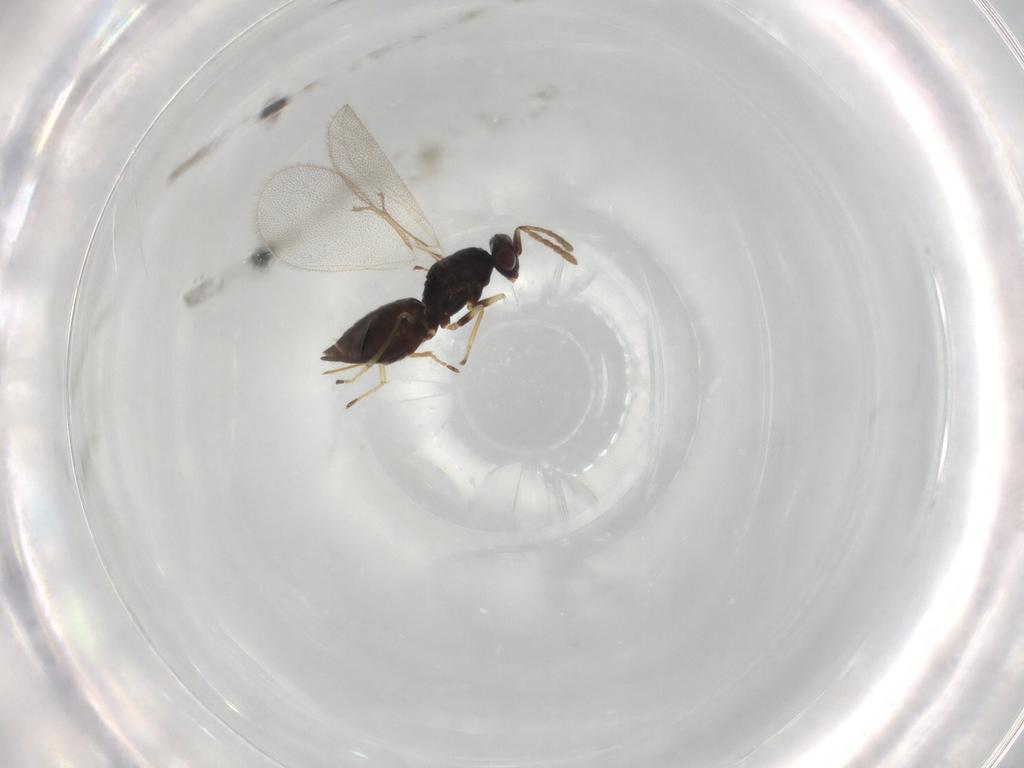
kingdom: Animalia
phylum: Arthropoda
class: Insecta
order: Hymenoptera
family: Eulophidae
